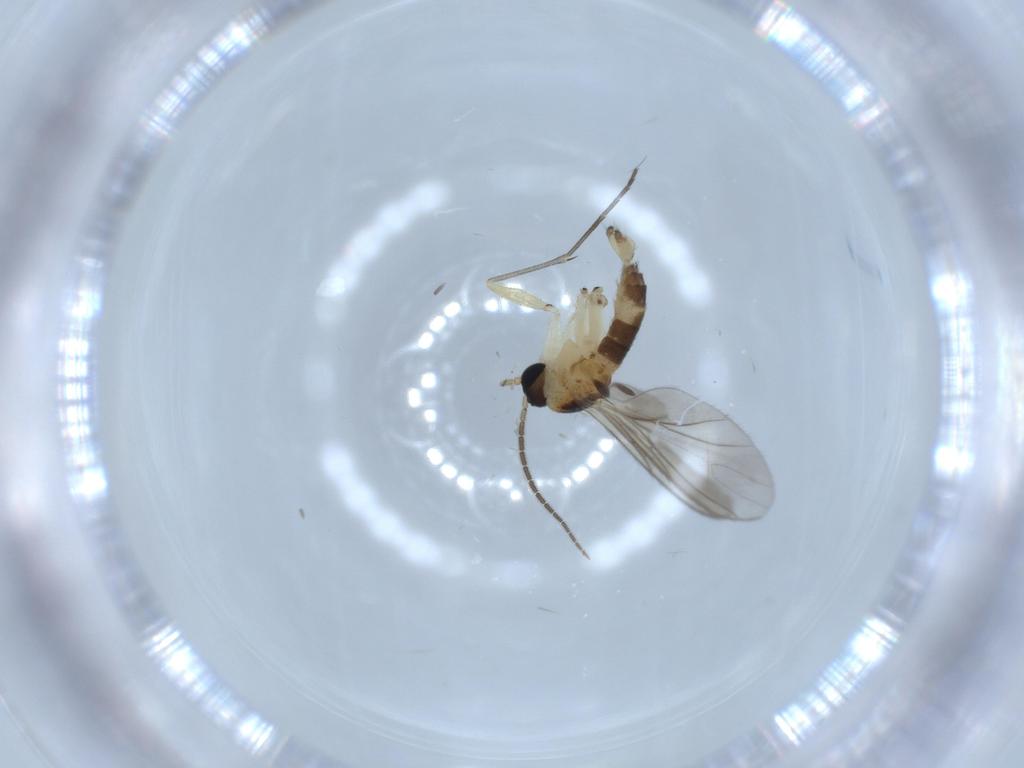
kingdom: Animalia
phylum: Arthropoda
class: Insecta
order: Diptera
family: Sciaridae
